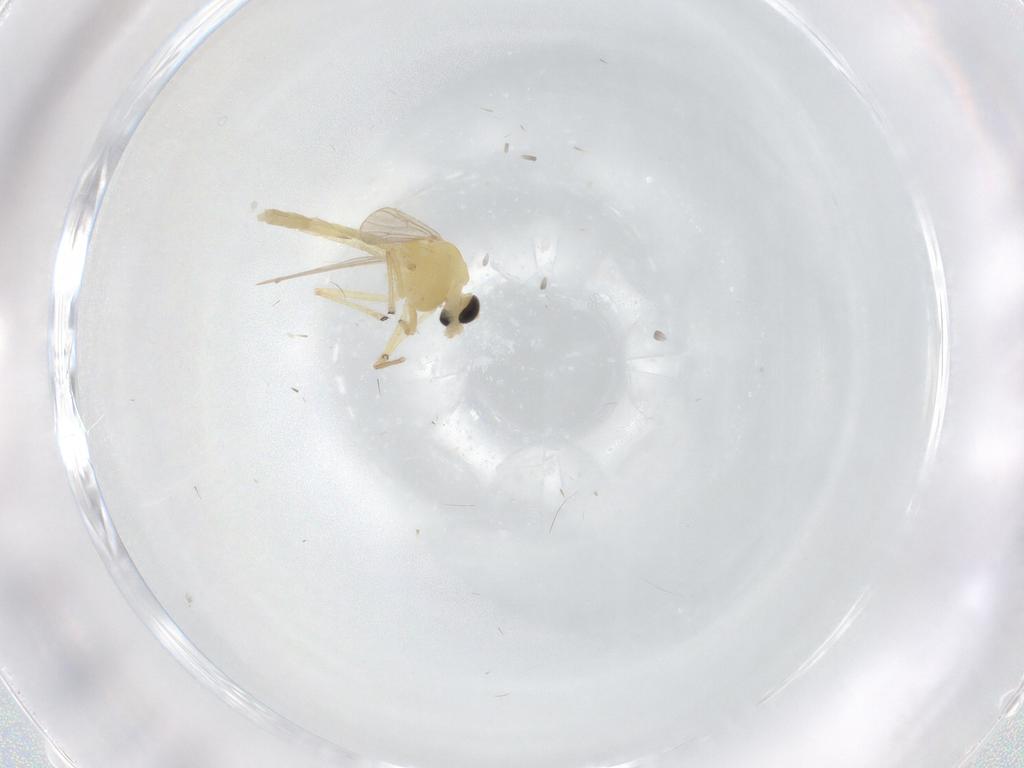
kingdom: Animalia
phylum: Arthropoda
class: Insecta
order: Diptera
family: Chironomidae
